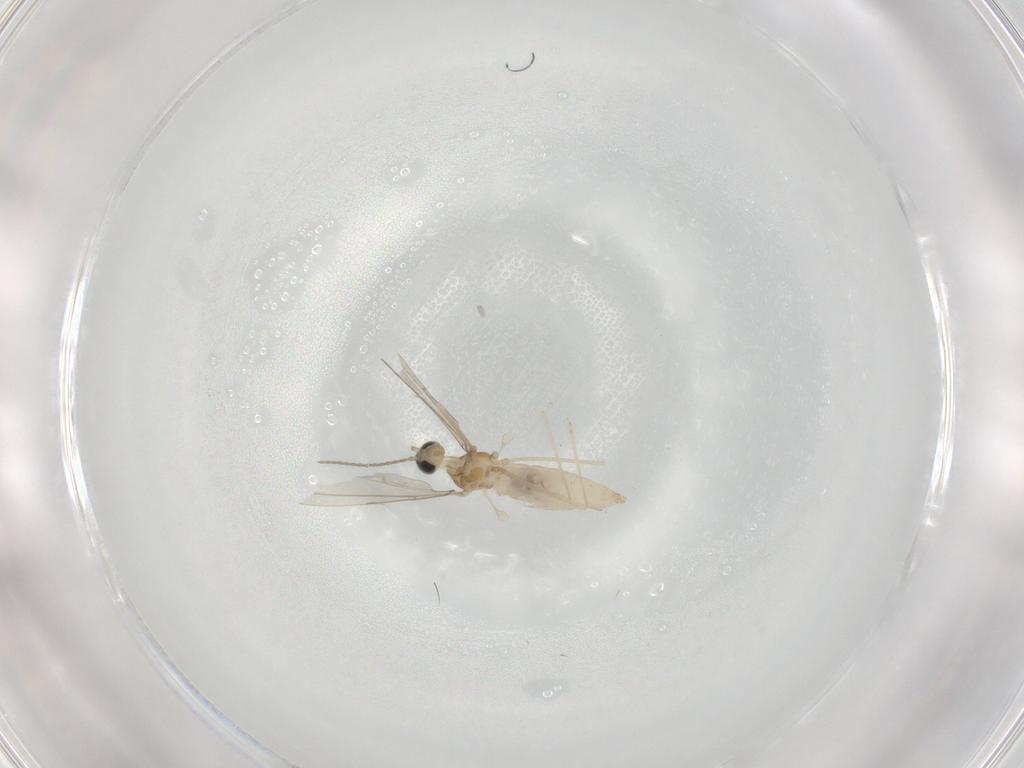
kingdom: Animalia
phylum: Arthropoda
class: Insecta
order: Diptera
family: Cecidomyiidae
